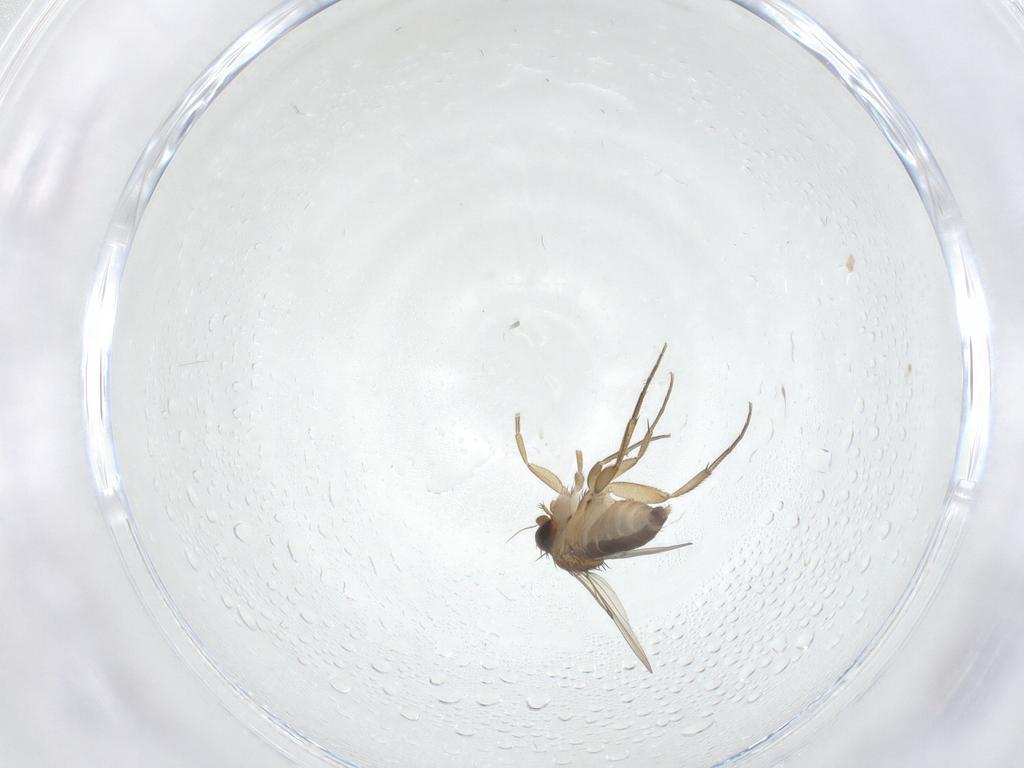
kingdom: Animalia
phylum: Arthropoda
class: Insecta
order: Diptera
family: Phoridae
